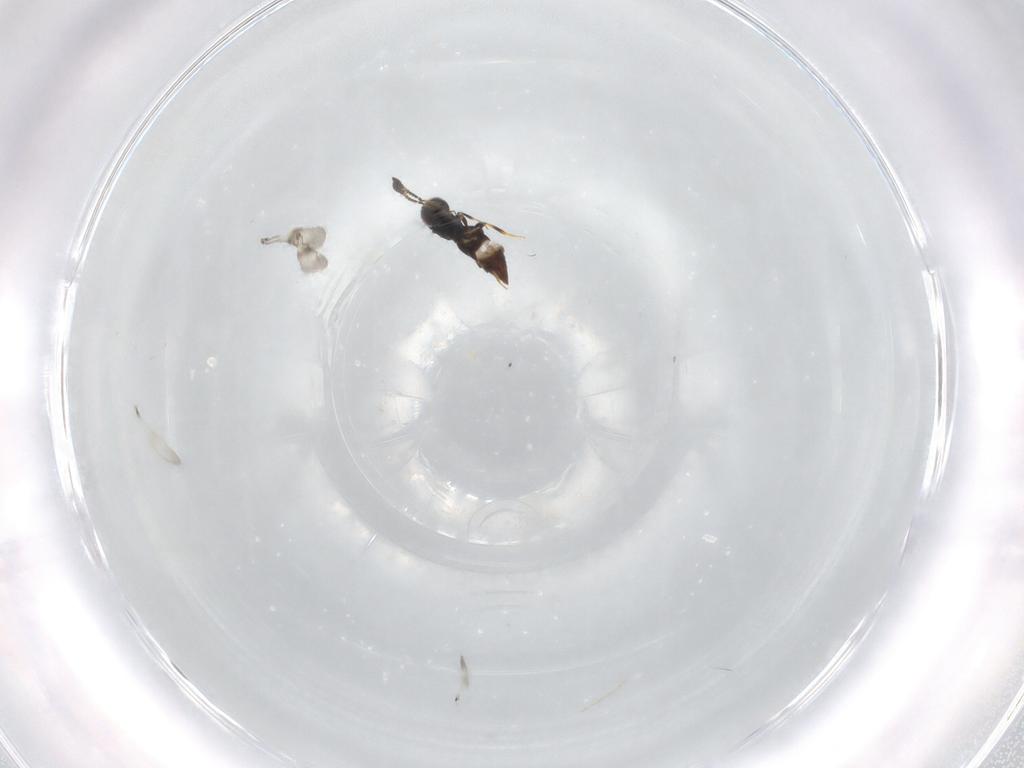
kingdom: Animalia
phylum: Arthropoda
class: Insecta
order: Hymenoptera
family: Ceraphronidae
